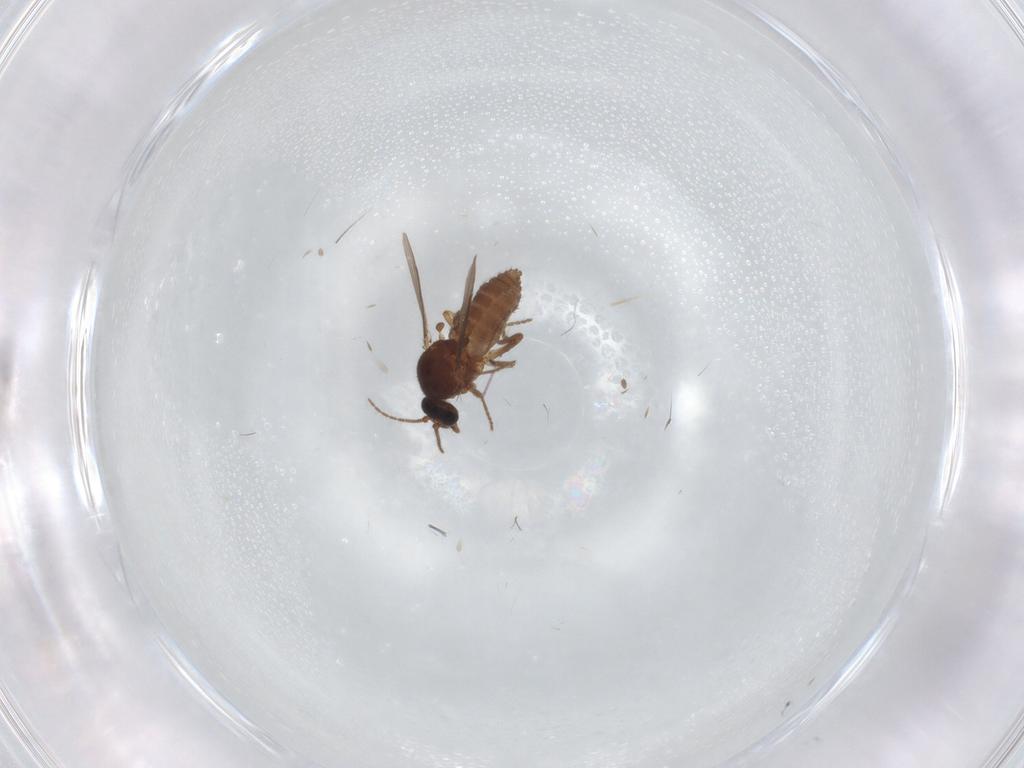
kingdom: Animalia
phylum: Arthropoda
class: Insecta
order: Diptera
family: Ceratopogonidae
